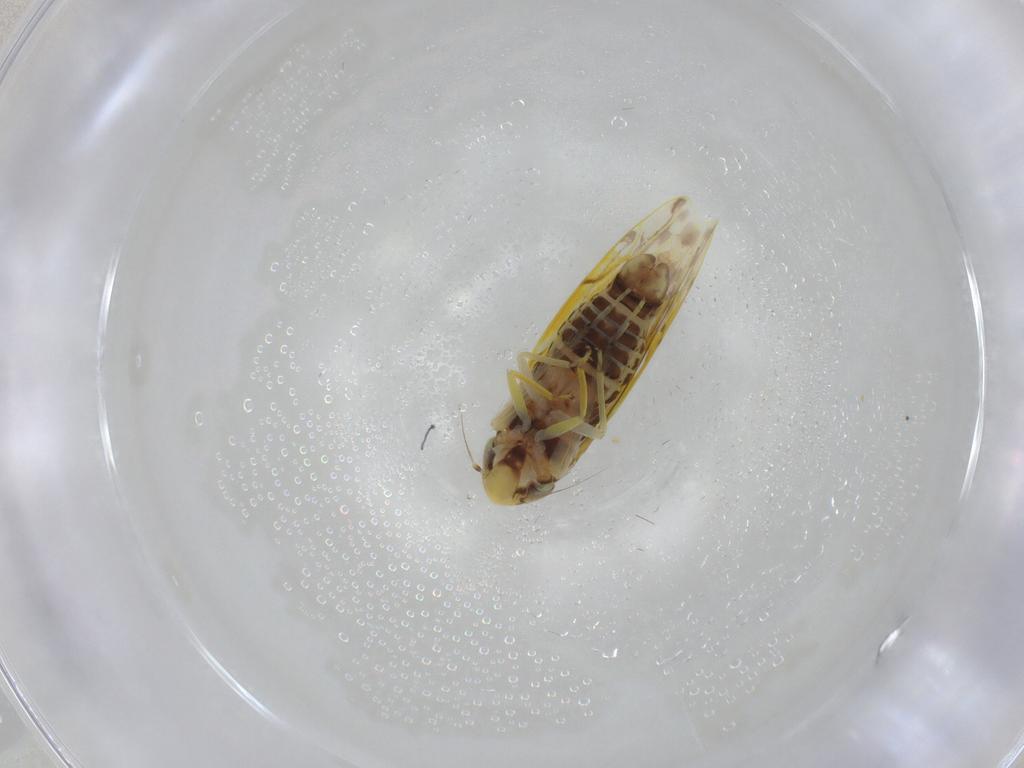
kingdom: Animalia
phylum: Arthropoda
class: Insecta
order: Hemiptera
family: Cicadellidae
